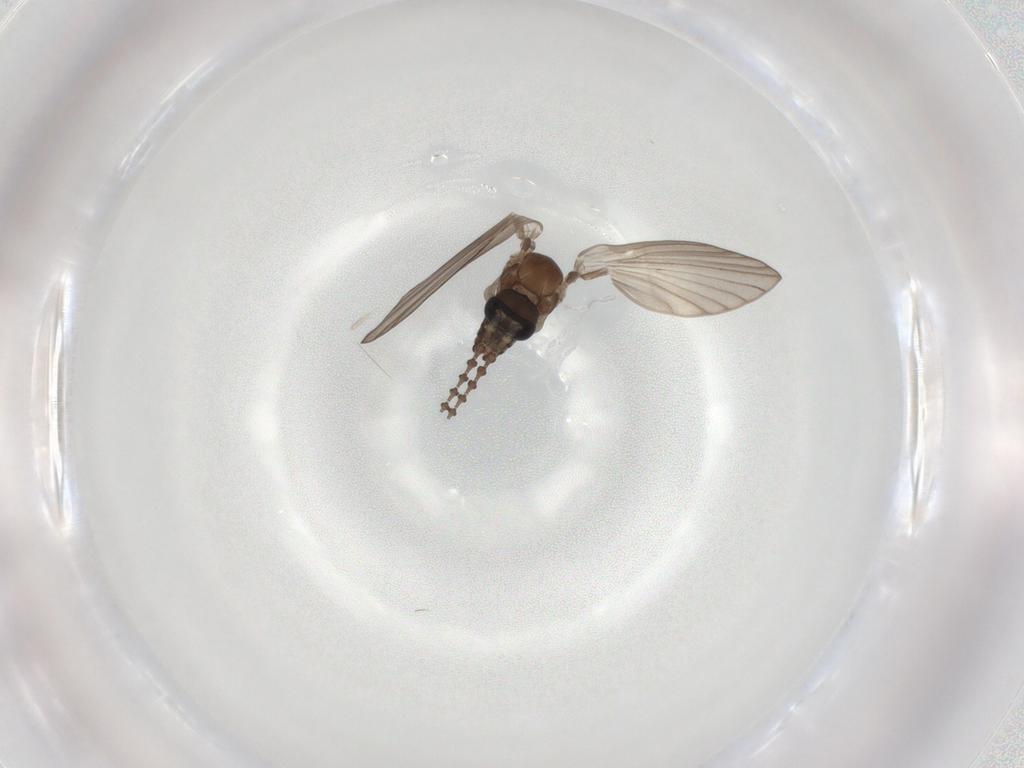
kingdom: Animalia
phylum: Arthropoda
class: Insecta
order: Diptera
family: Psychodidae
